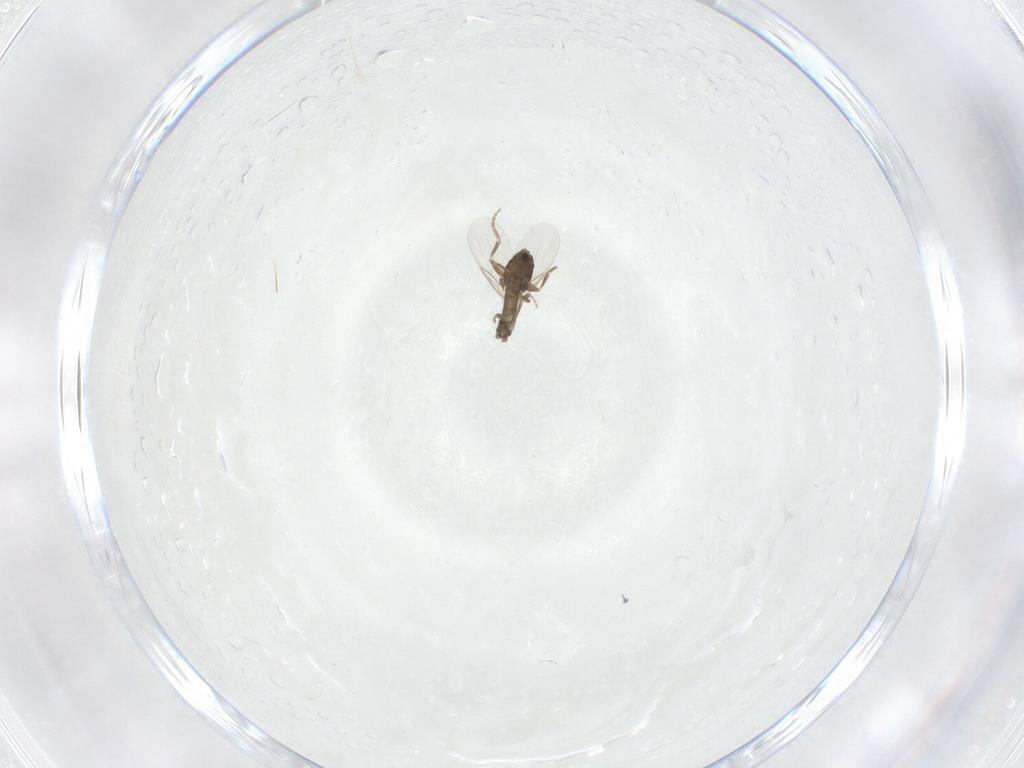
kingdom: Animalia
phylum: Arthropoda
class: Insecta
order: Diptera
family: Phoridae
